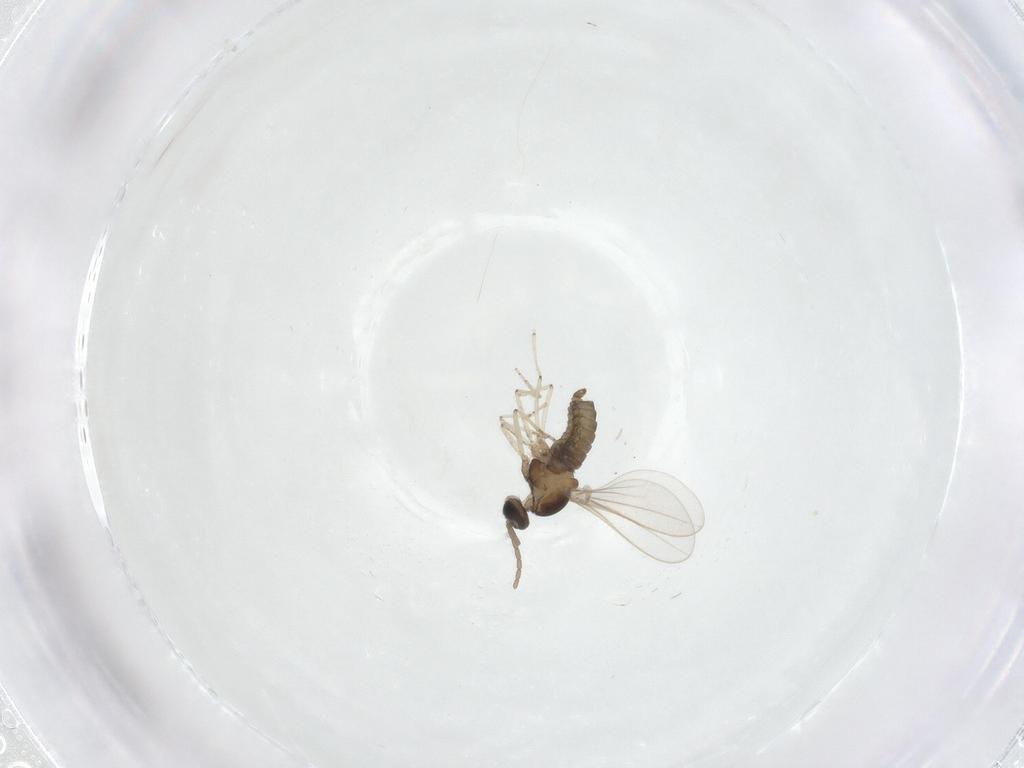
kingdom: Animalia
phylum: Arthropoda
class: Insecta
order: Diptera
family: Cecidomyiidae
